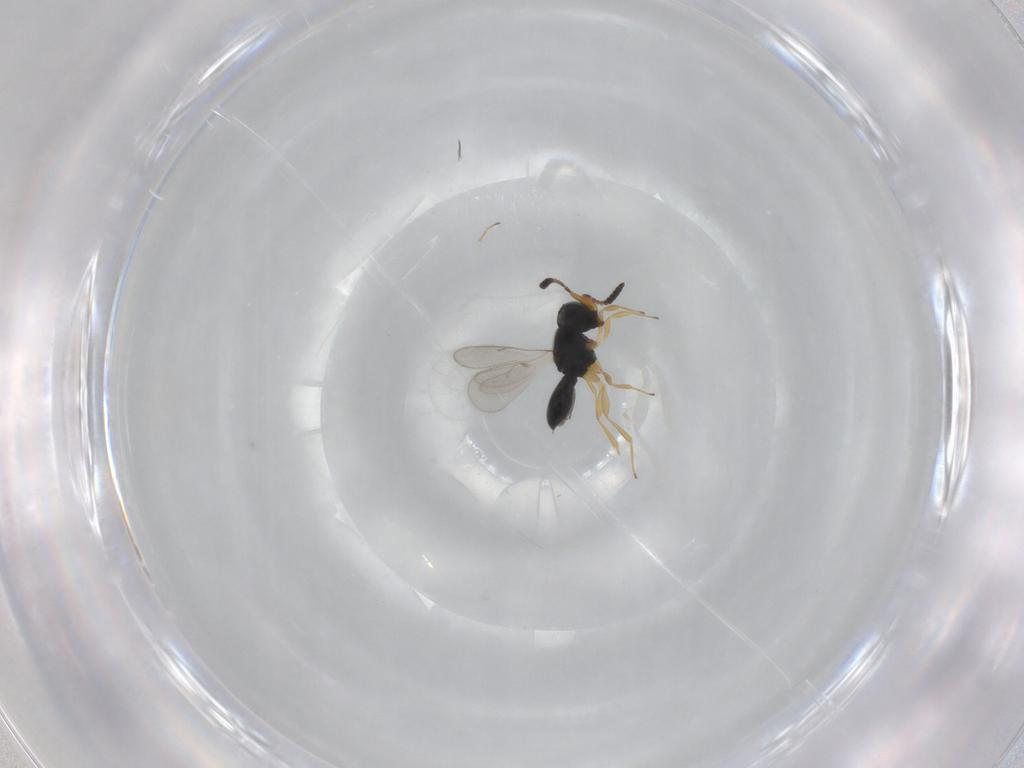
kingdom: Animalia
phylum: Arthropoda
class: Insecta
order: Hymenoptera
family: Scelionidae
